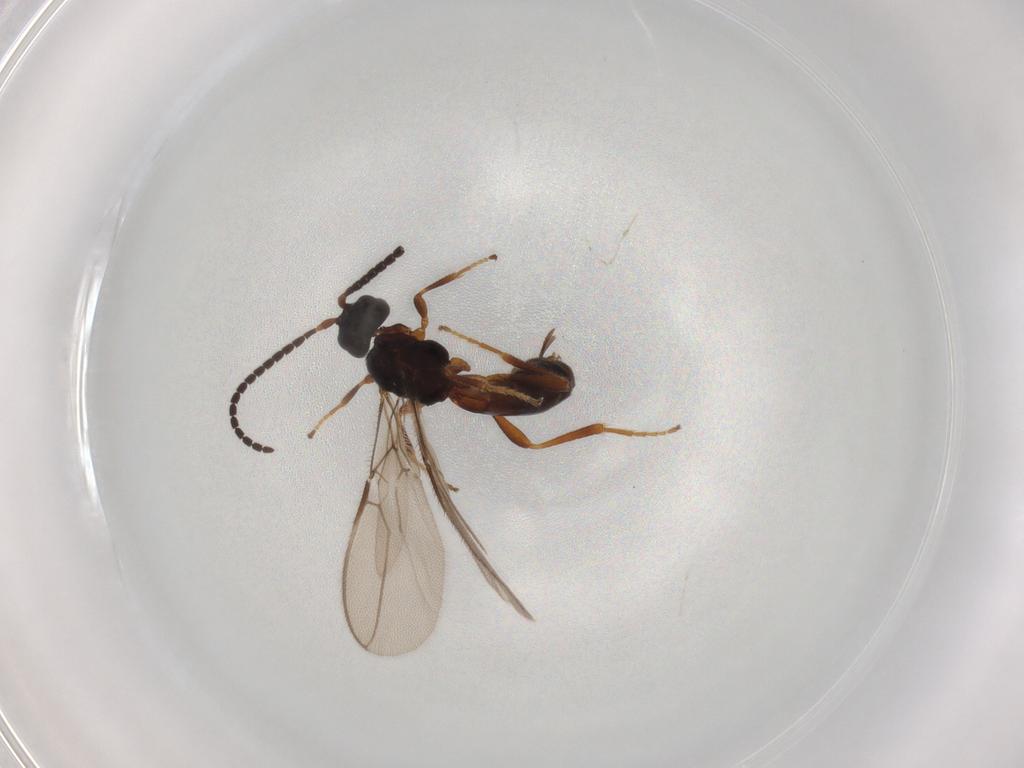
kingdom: Animalia
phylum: Arthropoda
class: Insecta
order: Hymenoptera
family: Braconidae
